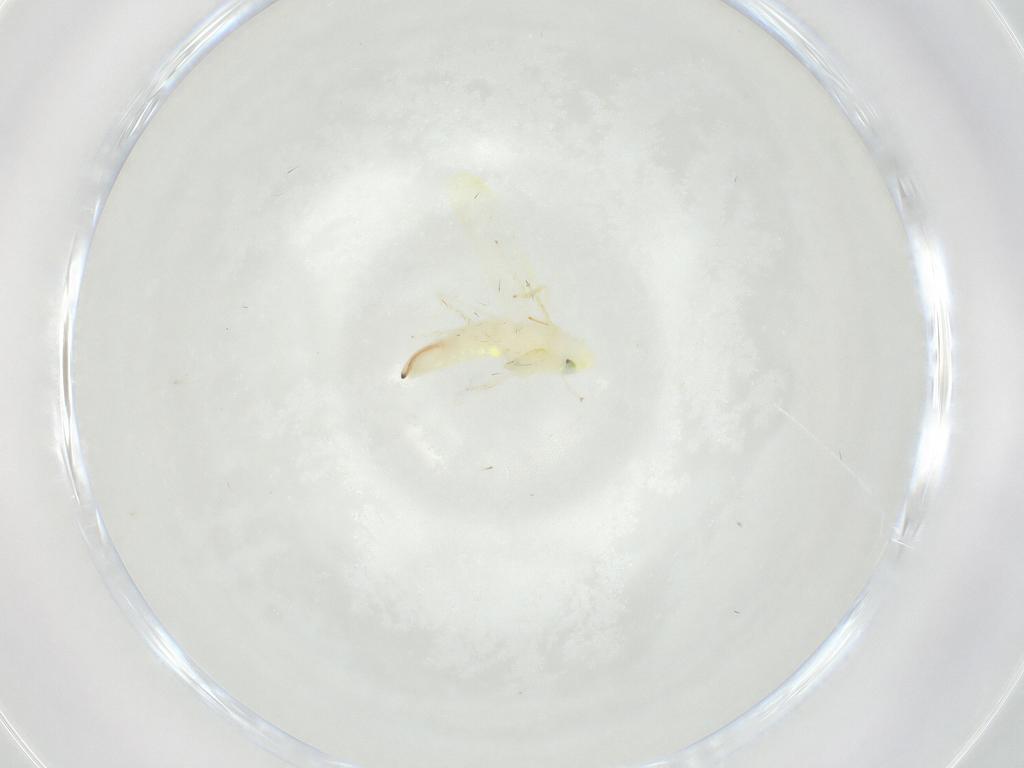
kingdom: Animalia
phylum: Arthropoda
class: Insecta
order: Hemiptera
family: Cicadellidae
